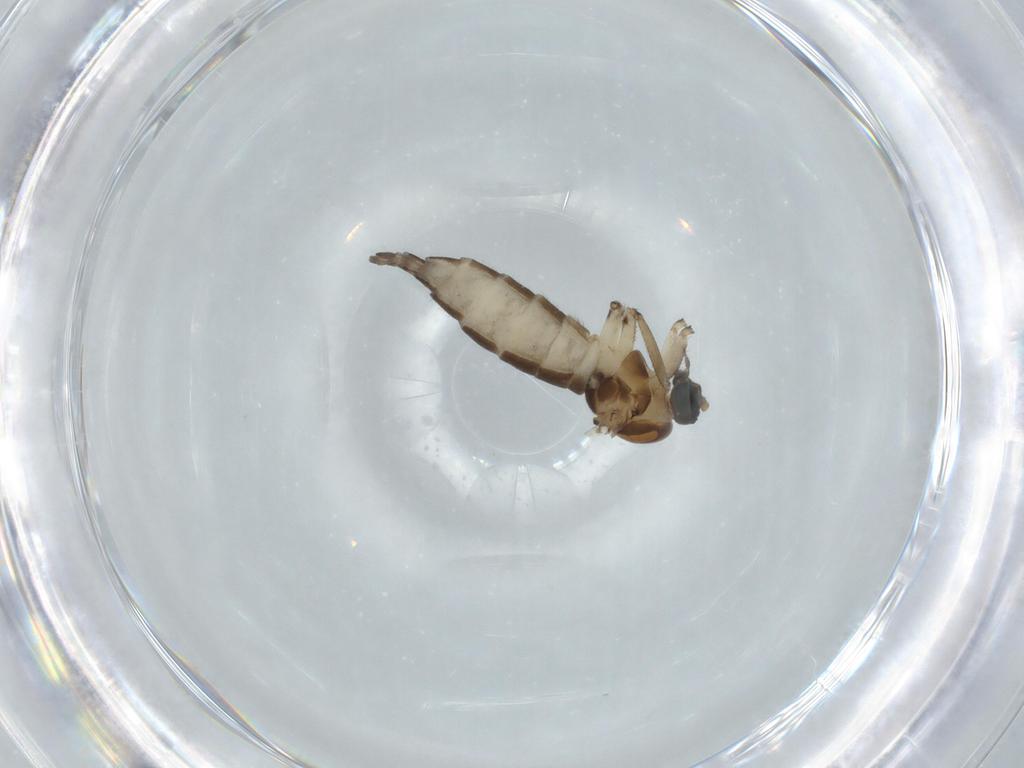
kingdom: Animalia
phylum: Arthropoda
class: Insecta
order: Diptera
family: Sciaridae
